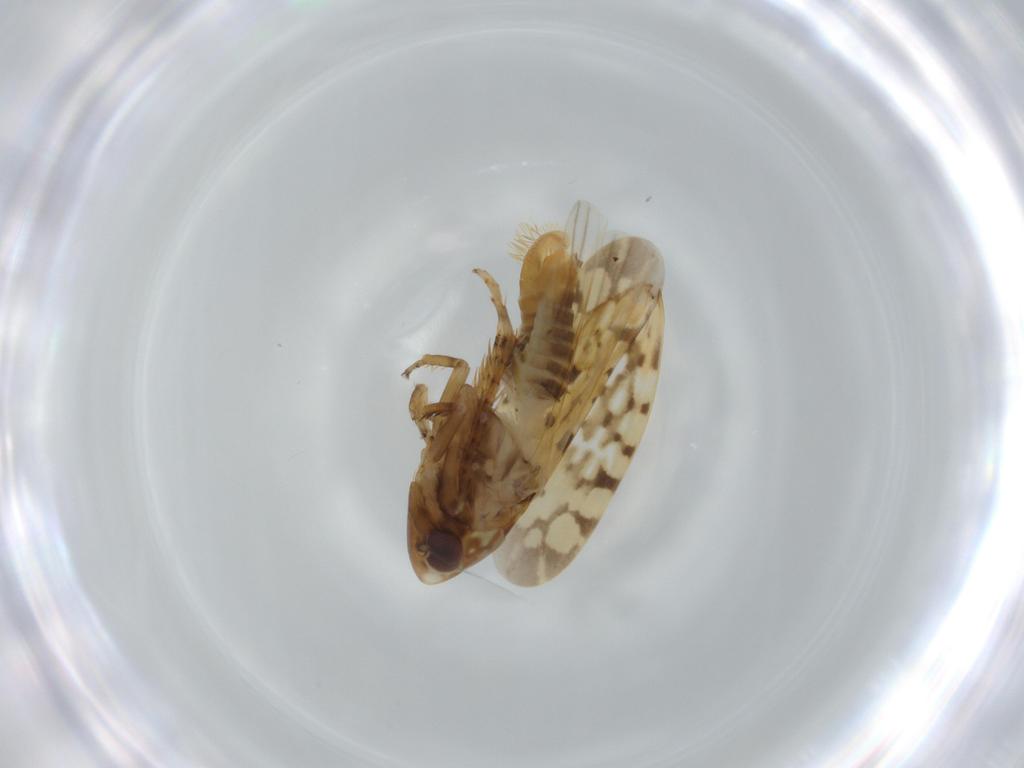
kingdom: Animalia
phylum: Arthropoda
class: Insecta
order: Hemiptera
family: Cicadellidae
